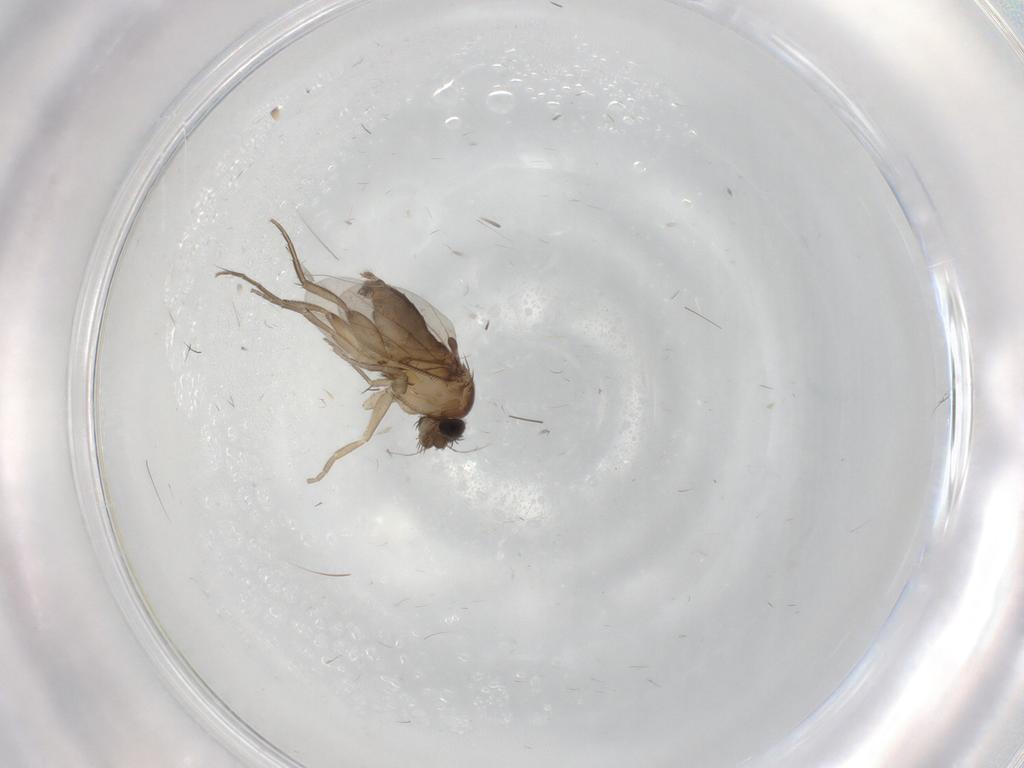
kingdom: Animalia
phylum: Arthropoda
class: Insecta
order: Diptera
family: Phoridae
